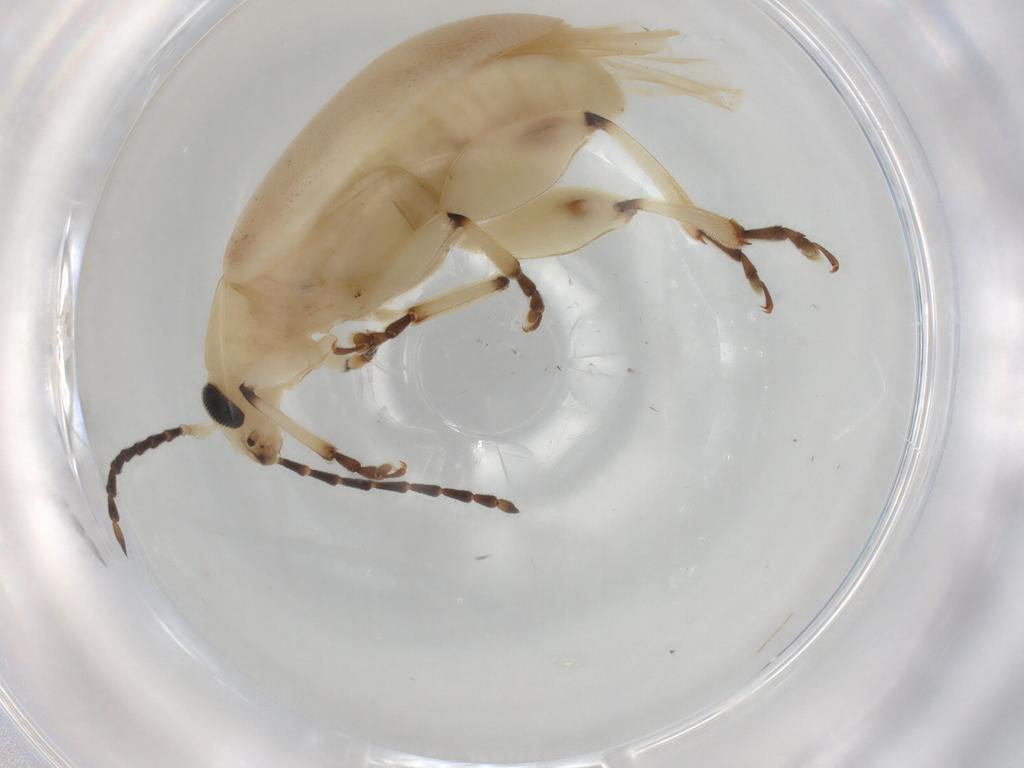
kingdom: Animalia
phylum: Arthropoda
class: Insecta
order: Coleoptera
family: Chrysomelidae
